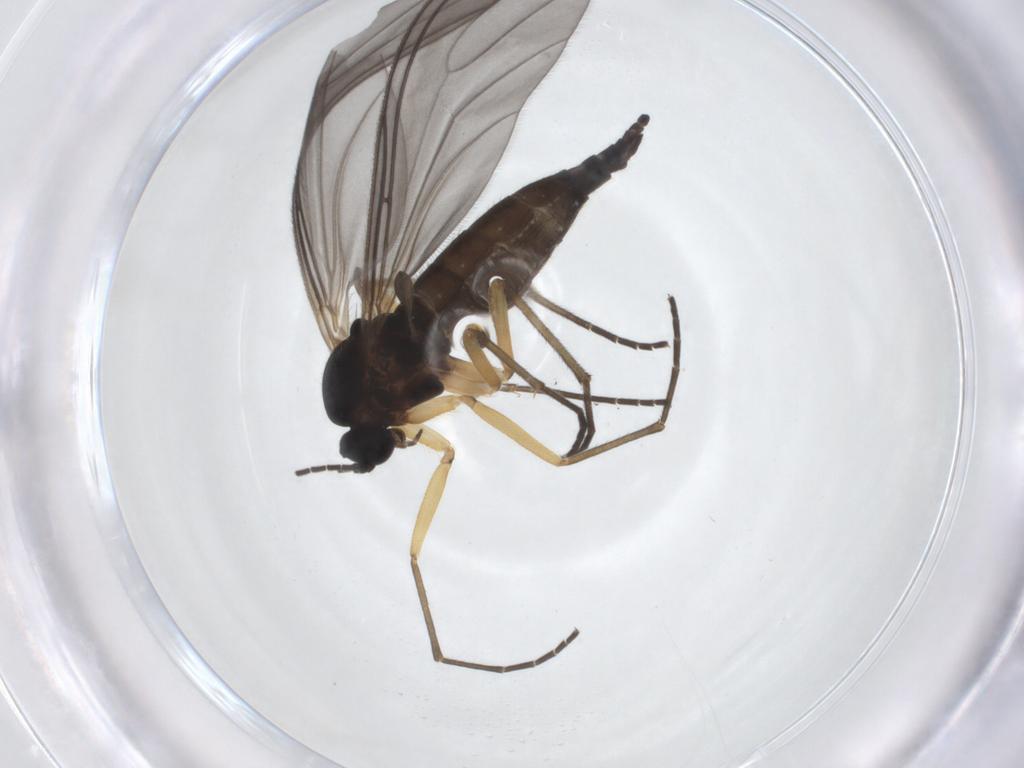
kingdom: Animalia
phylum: Arthropoda
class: Insecta
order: Diptera
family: Sciaridae
